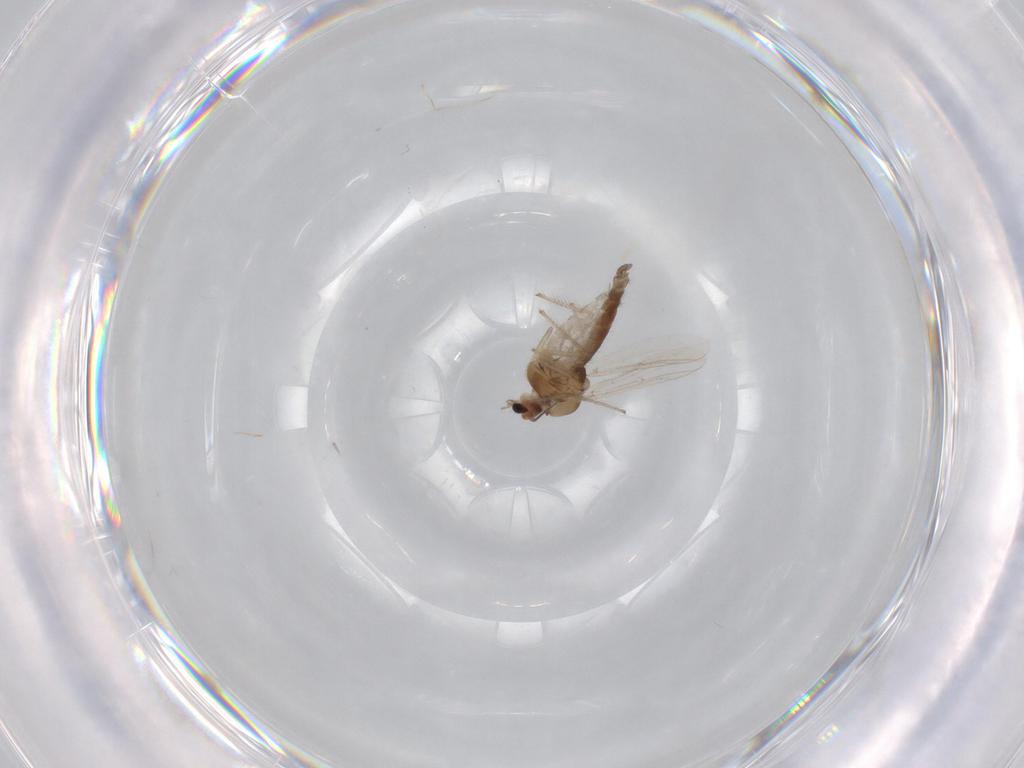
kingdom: Animalia
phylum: Arthropoda
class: Insecta
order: Diptera
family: Chironomidae
